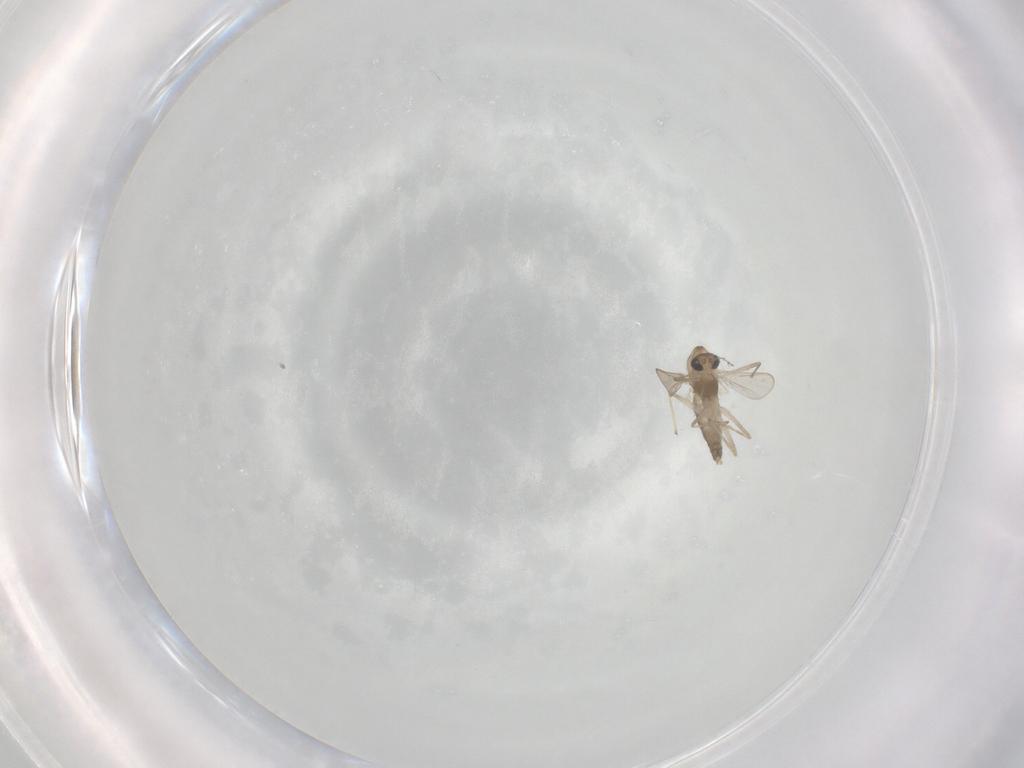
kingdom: Animalia
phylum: Arthropoda
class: Insecta
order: Diptera
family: Chironomidae
